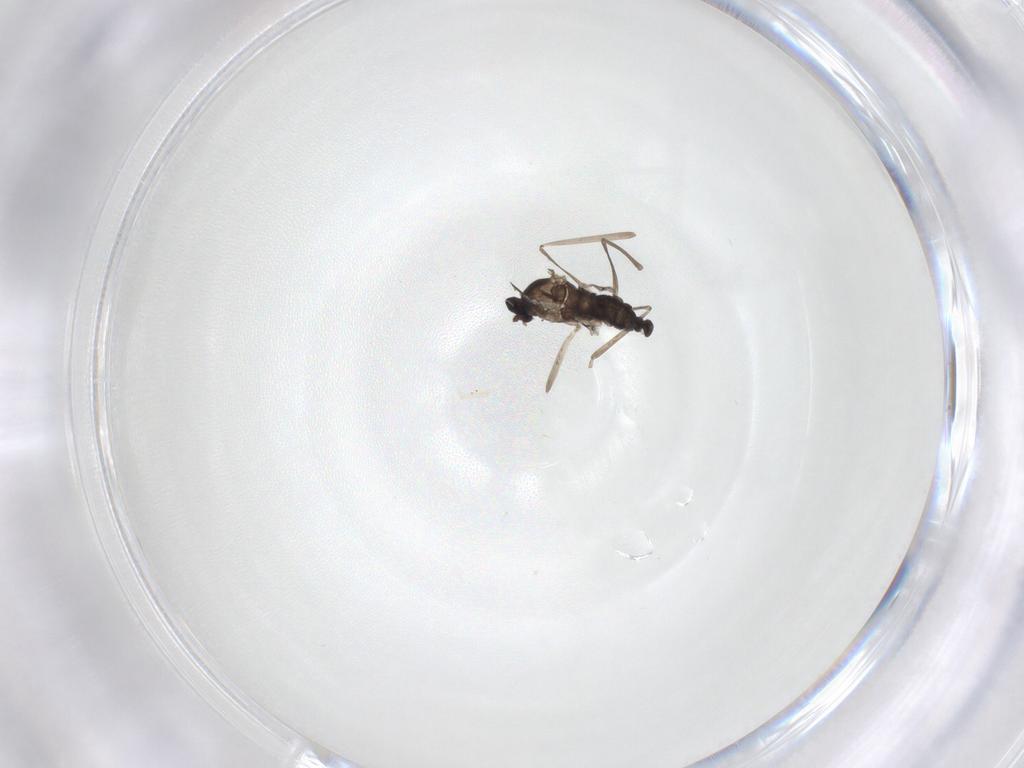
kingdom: Animalia
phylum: Arthropoda
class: Insecta
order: Diptera
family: Cecidomyiidae
